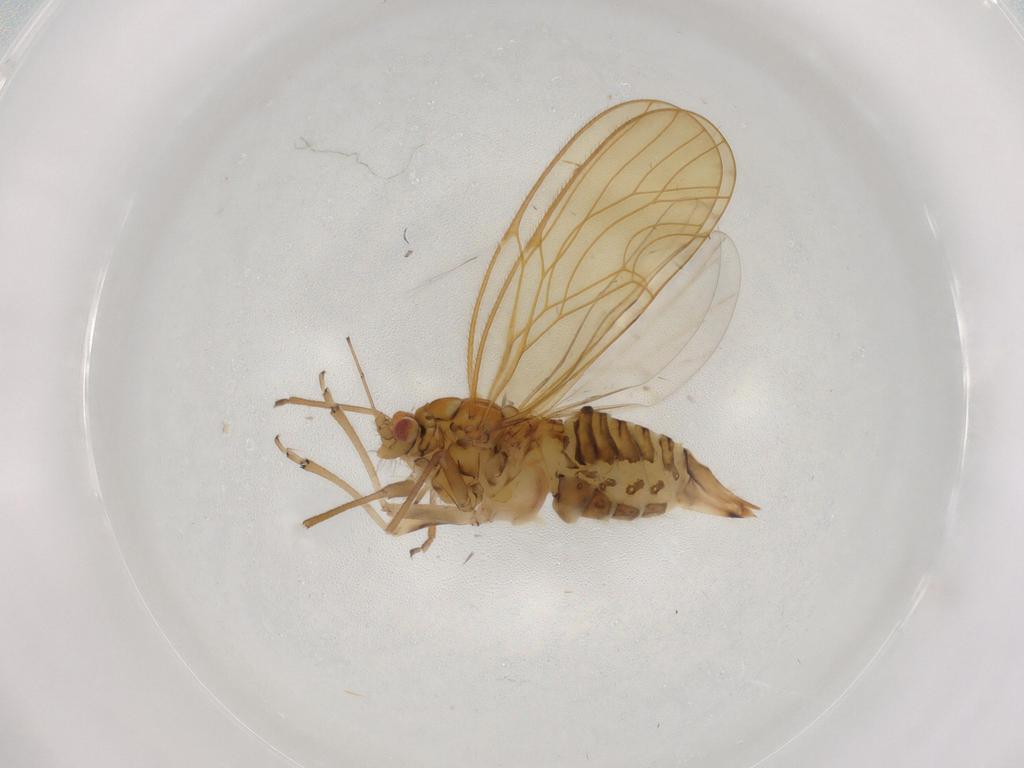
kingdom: Animalia
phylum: Arthropoda
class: Insecta
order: Hemiptera
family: Psyllidae
